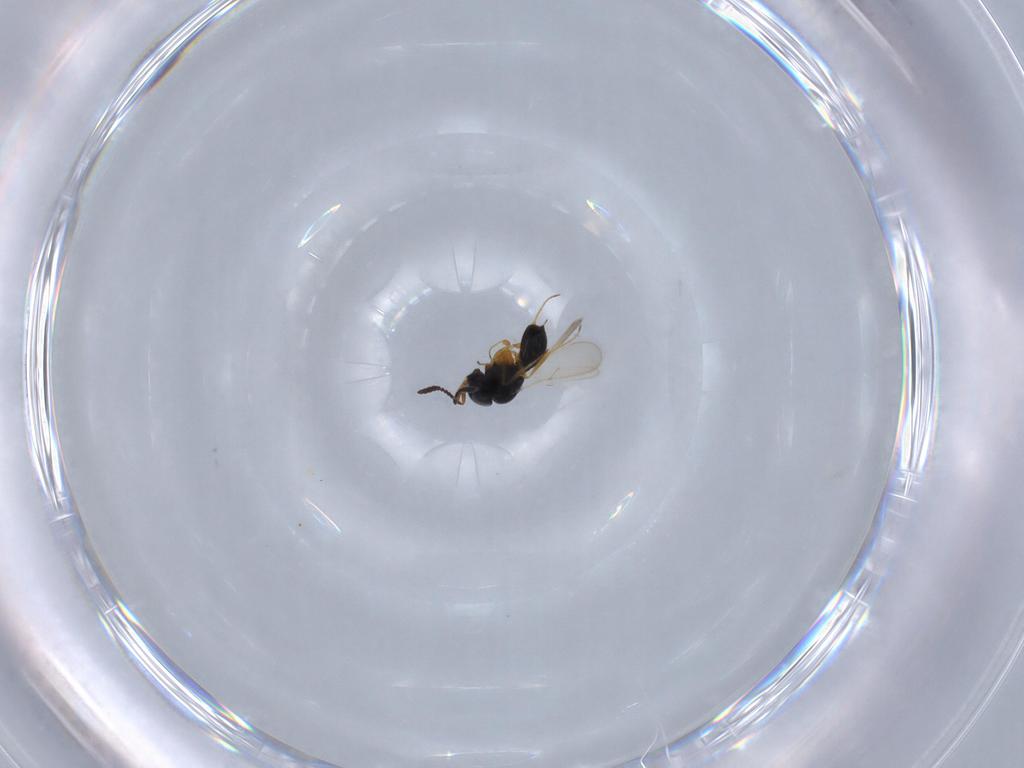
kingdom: Animalia
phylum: Arthropoda
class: Insecta
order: Hymenoptera
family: Scelionidae
